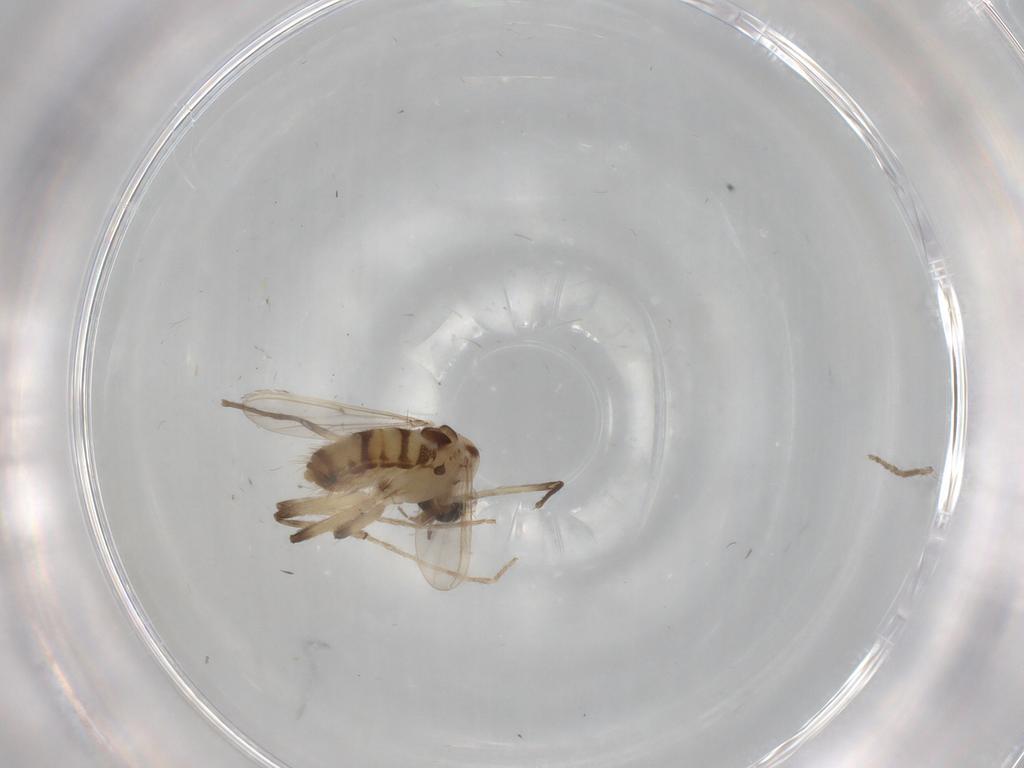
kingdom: Animalia
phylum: Arthropoda
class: Insecta
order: Diptera
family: Chironomidae
